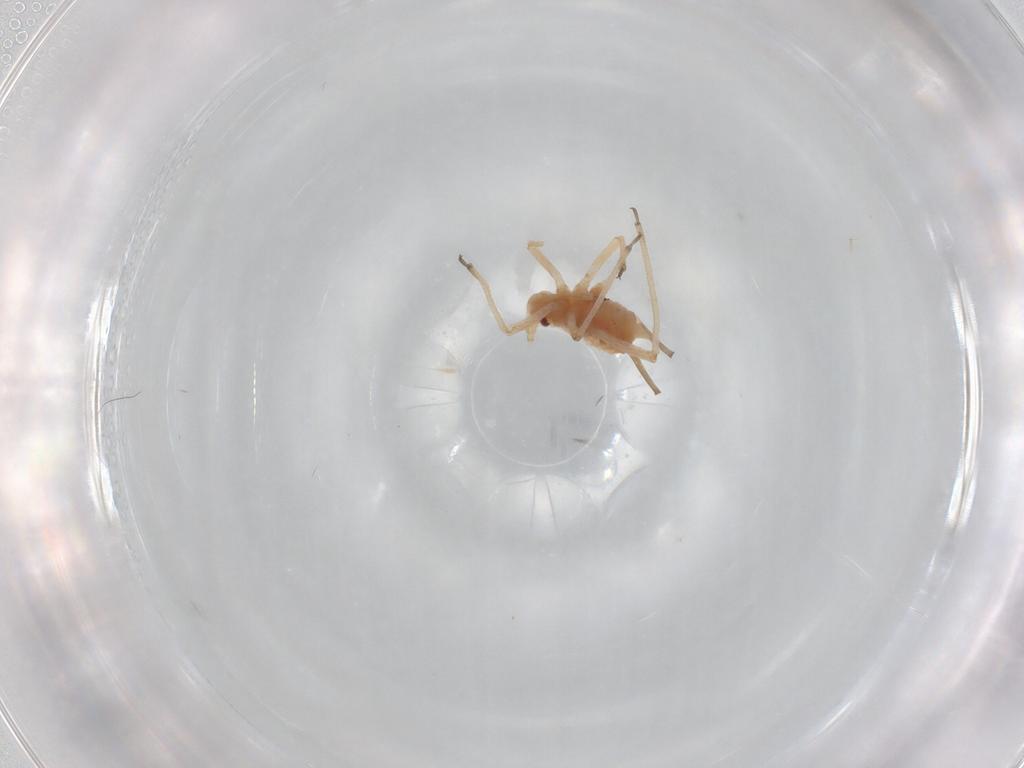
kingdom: Animalia
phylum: Arthropoda
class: Insecta
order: Hemiptera
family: Aphididae
